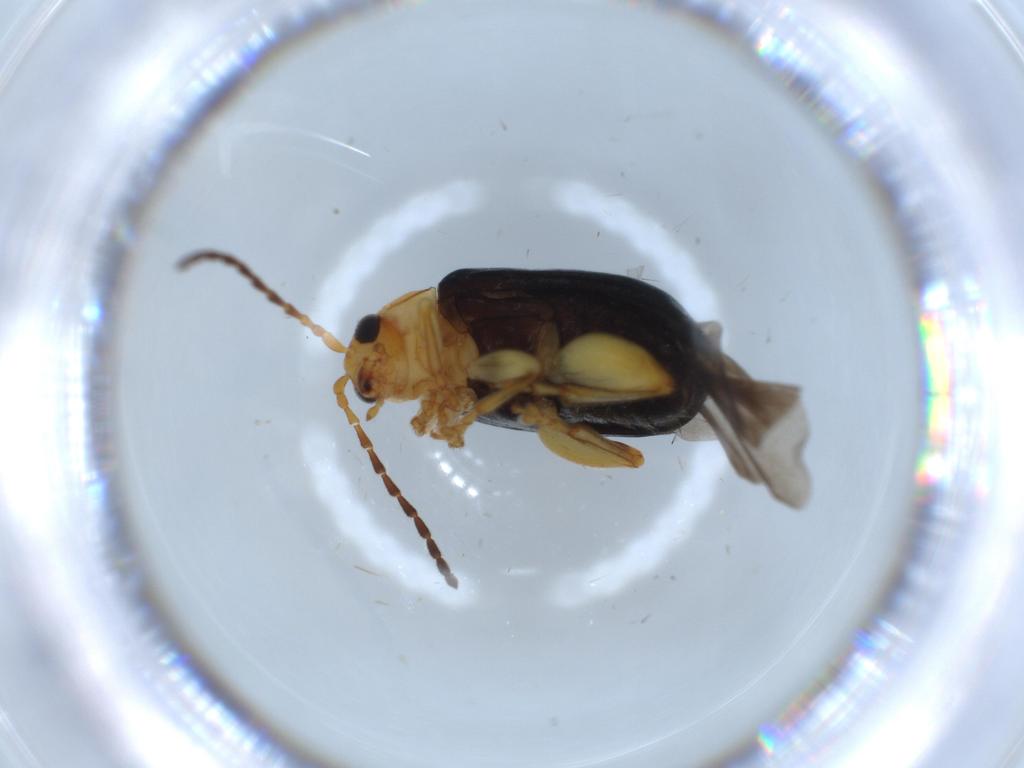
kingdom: Animalia
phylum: Arthropoda
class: Insecta
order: Coleoptera
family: Chrysomelidae
